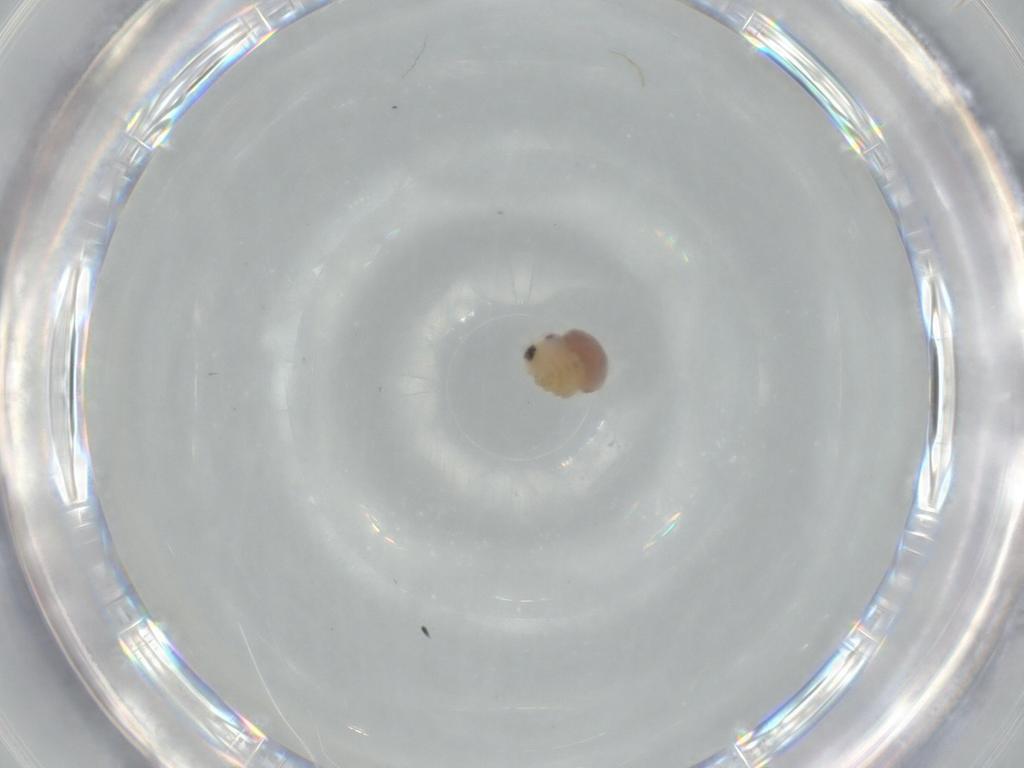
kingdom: Animalia
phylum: Arthropoda
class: Arachnida
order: Araneae
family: Pholcidae
